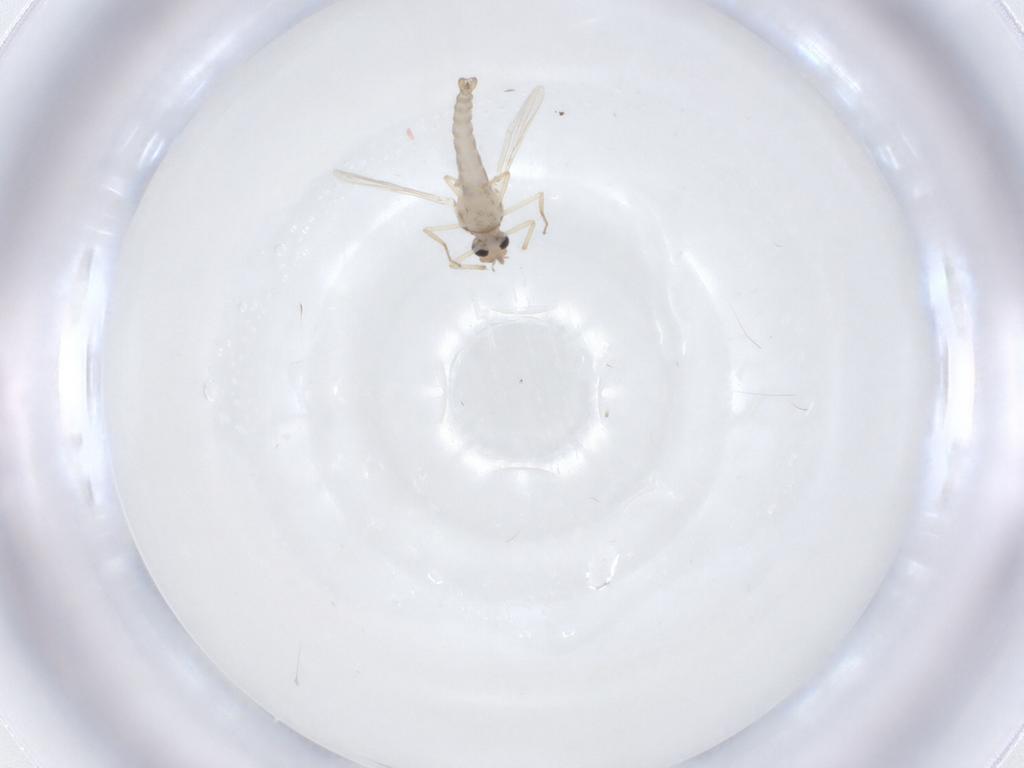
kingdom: Animalia
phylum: Arthropoda
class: Insecta
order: Diptera
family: Ceratopogonidae
